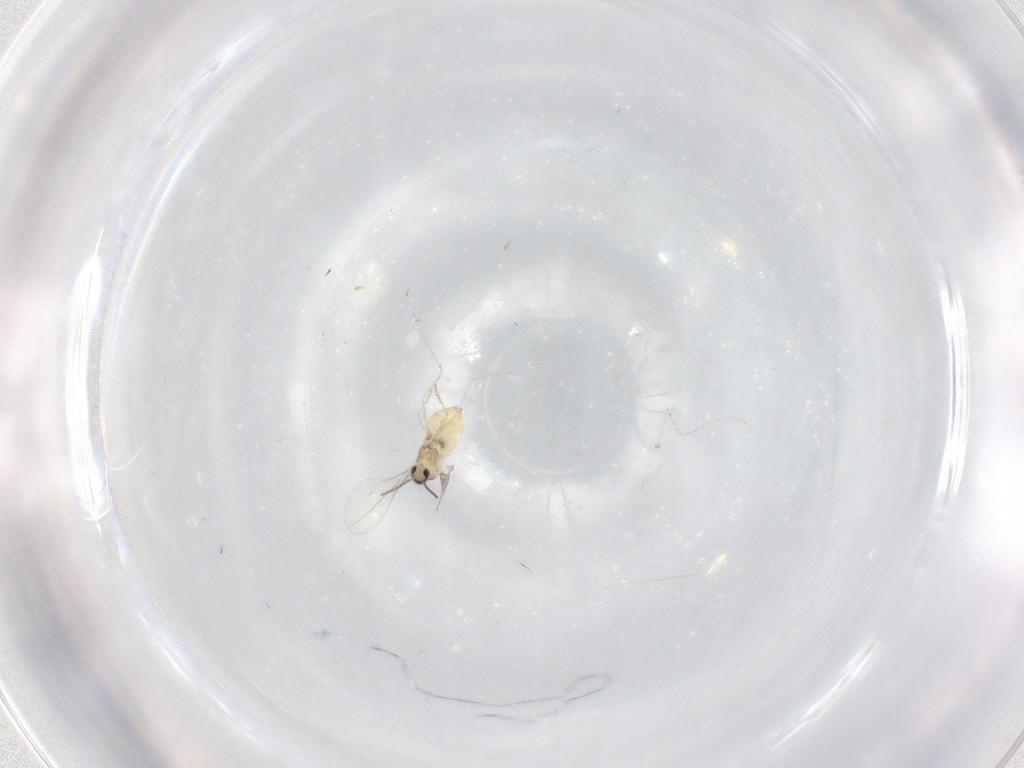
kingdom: Animalia
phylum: Arthropoda
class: Insecta
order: Diptera
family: Cecidomyiidae
